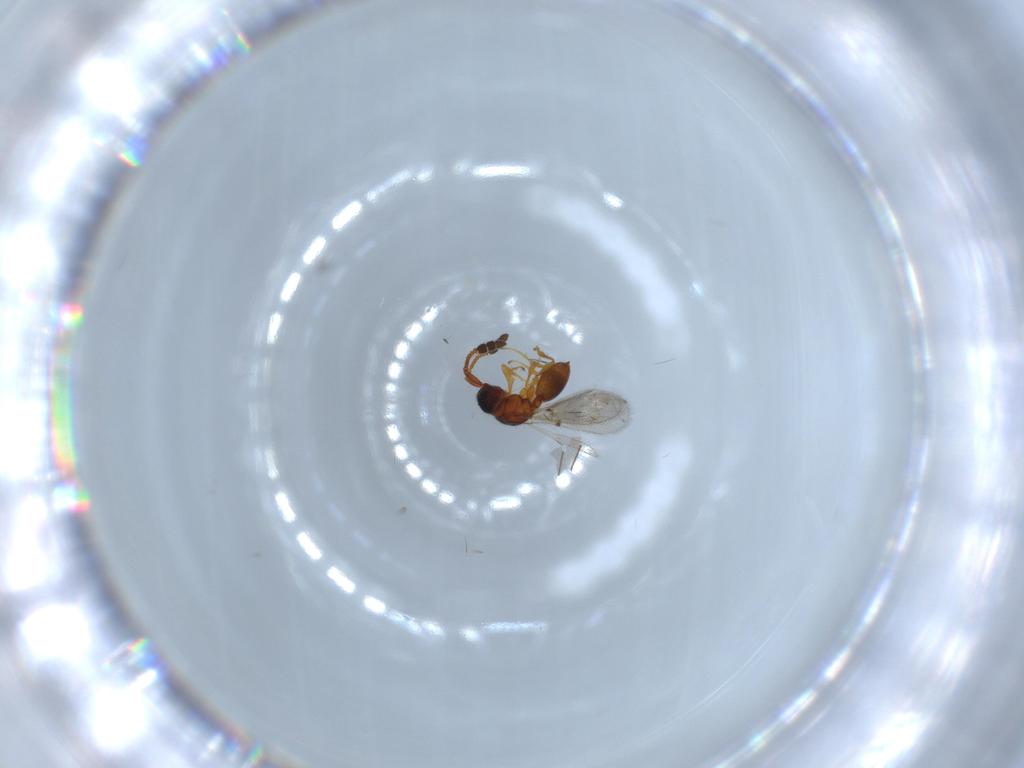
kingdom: Animalia
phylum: Arthropoda
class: Insecta
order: Hymenoptera
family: Diapriidae
